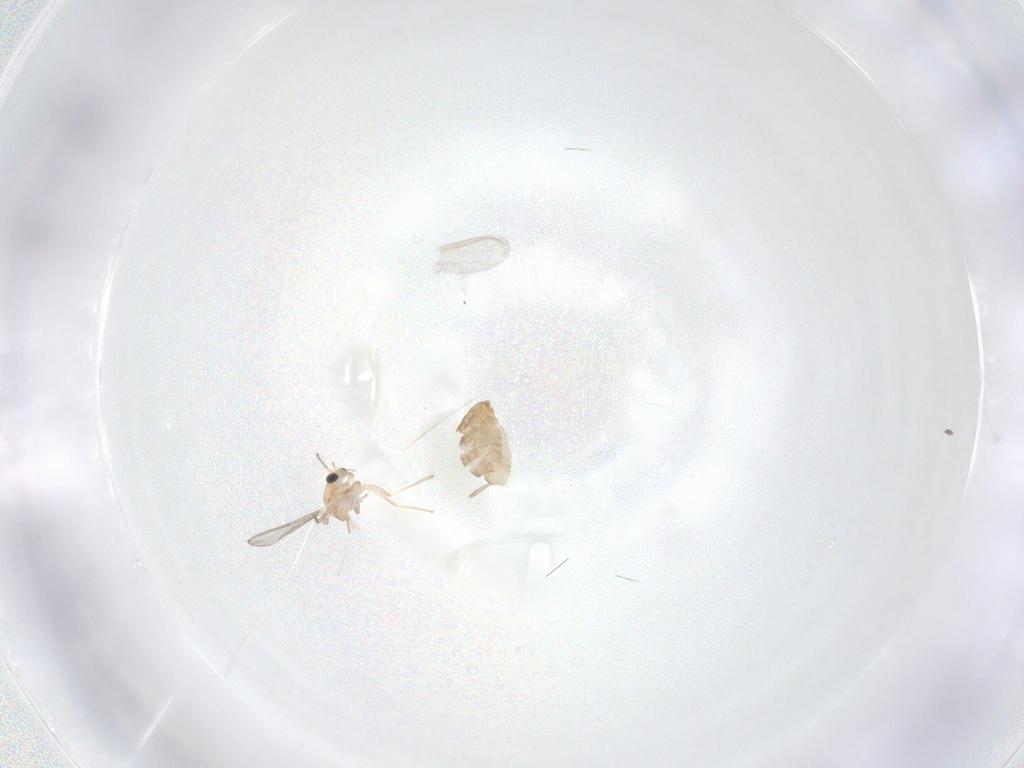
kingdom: Animalia
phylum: Arthropoda
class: Insecta
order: Diptera
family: Chironomidae
